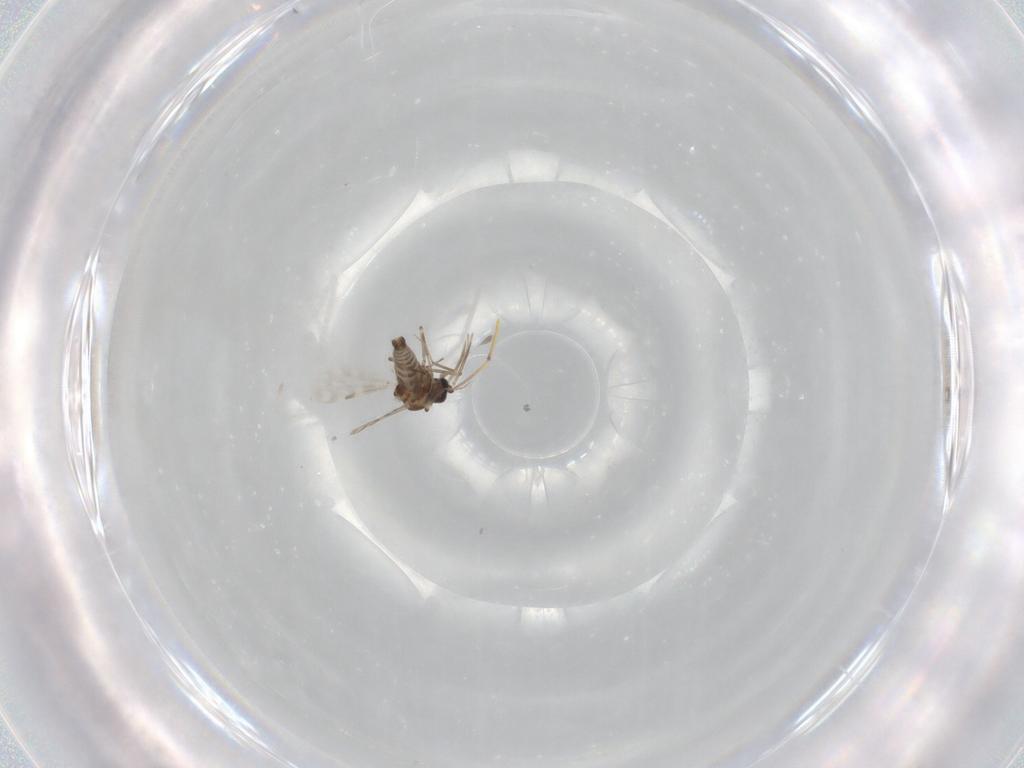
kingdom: Animalia
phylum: Arthropoda
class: Insecta
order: Diptera
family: Ceratopogonidae
